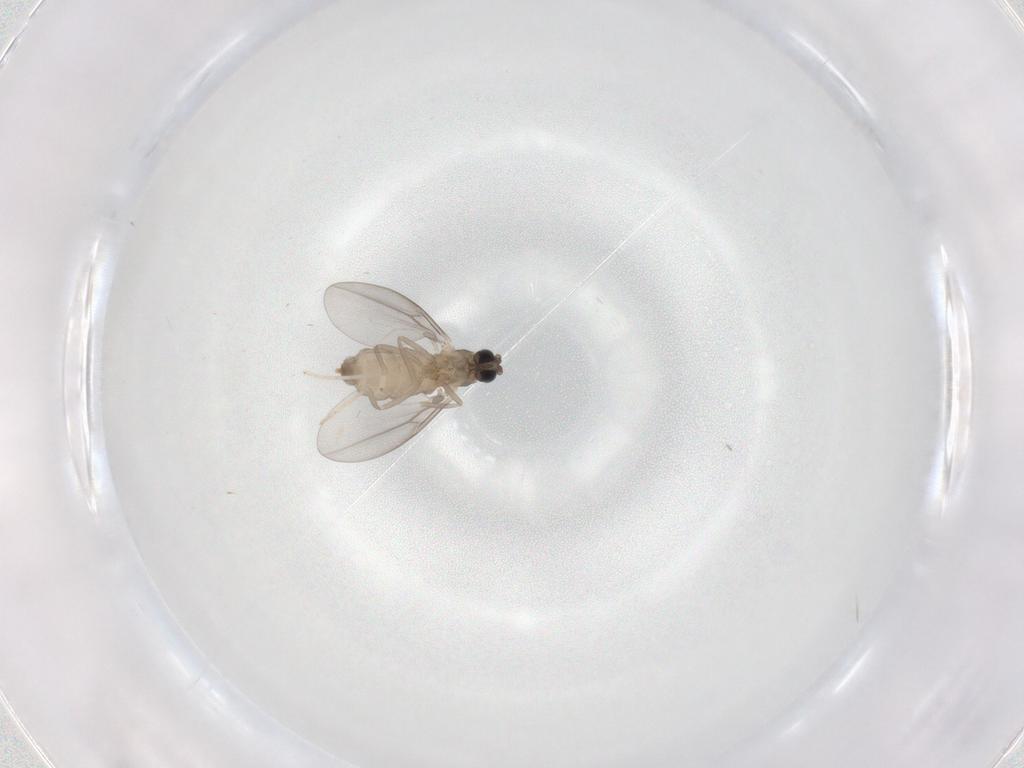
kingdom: Animalia
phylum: Arthropoda
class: Insecta
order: Diptera
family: Cecidomyiidae
